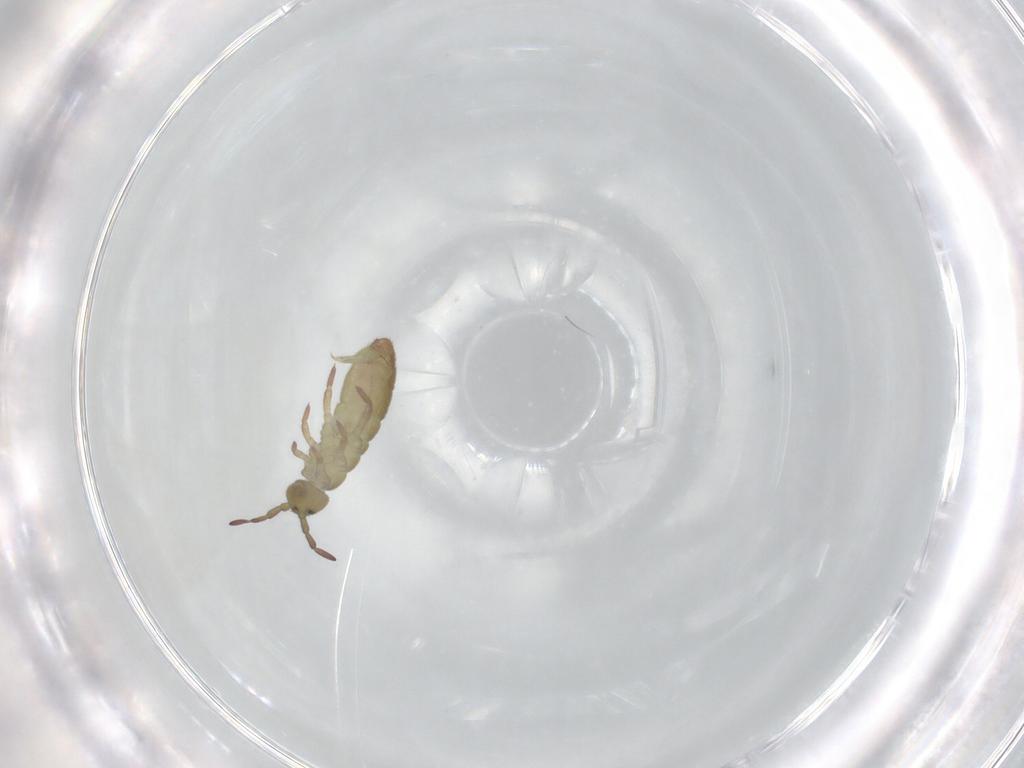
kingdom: Animalia
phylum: Arthropoda
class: Collembola
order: Entomobryomorpha
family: Isotomidae
